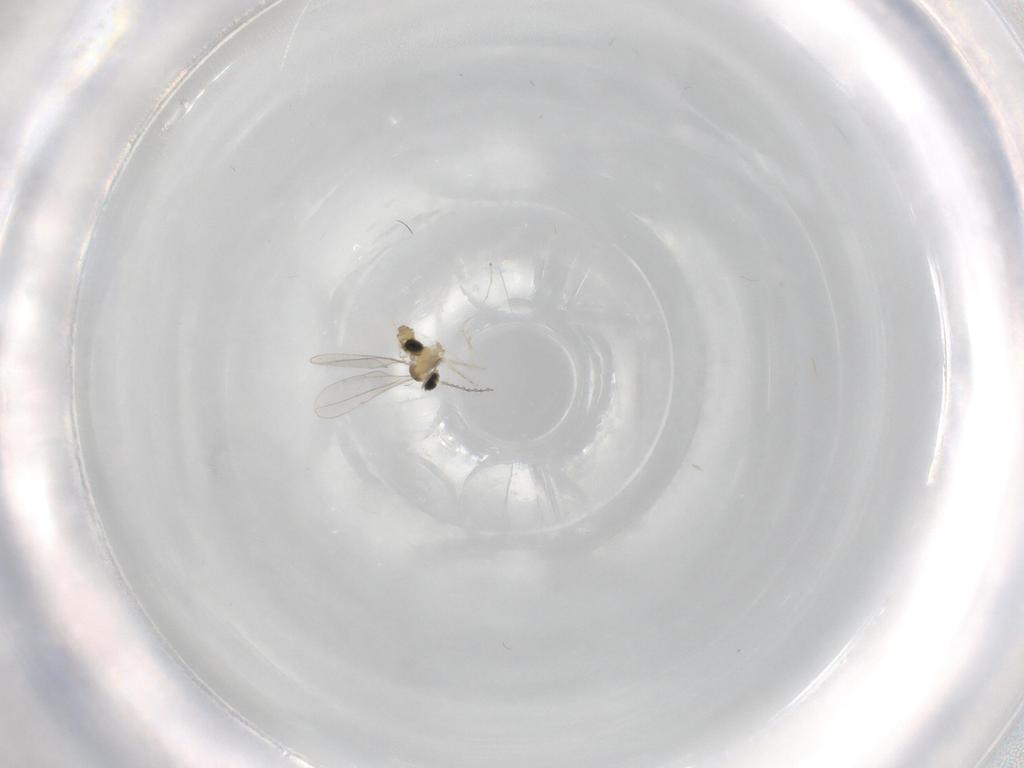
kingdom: Animalia
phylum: Arthropoda
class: Insecta
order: Diptera
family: Cecidomyiidae
